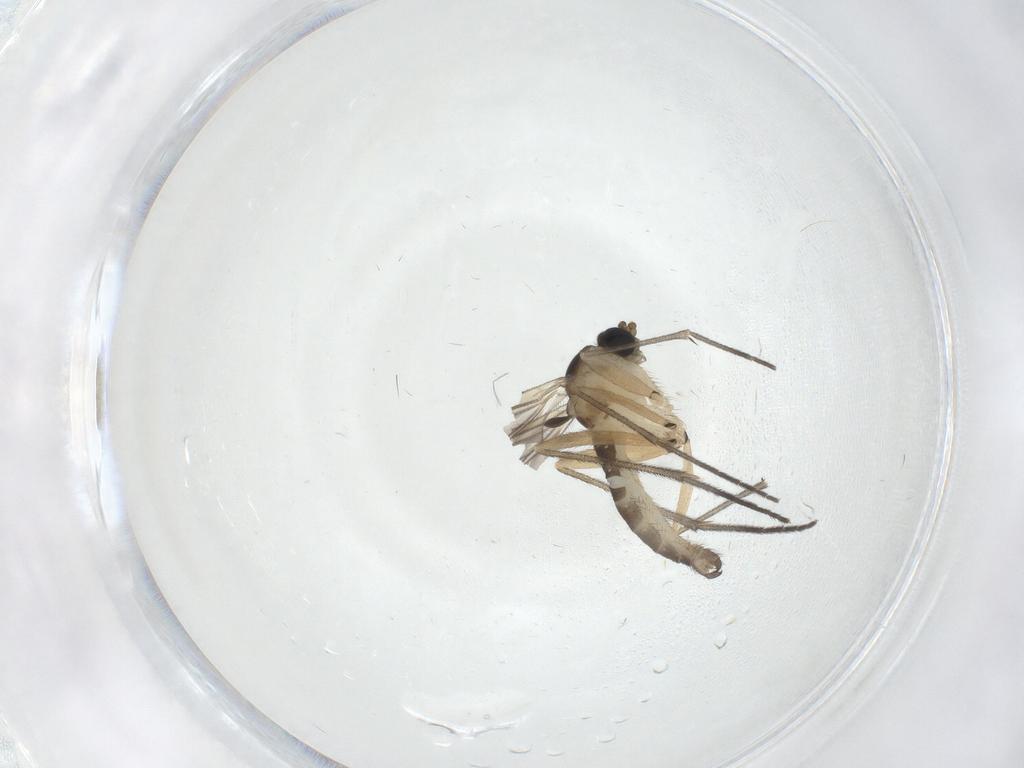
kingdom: Animalia
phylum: Arthropoda
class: Insecta
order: Diptera
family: Sciaridae
